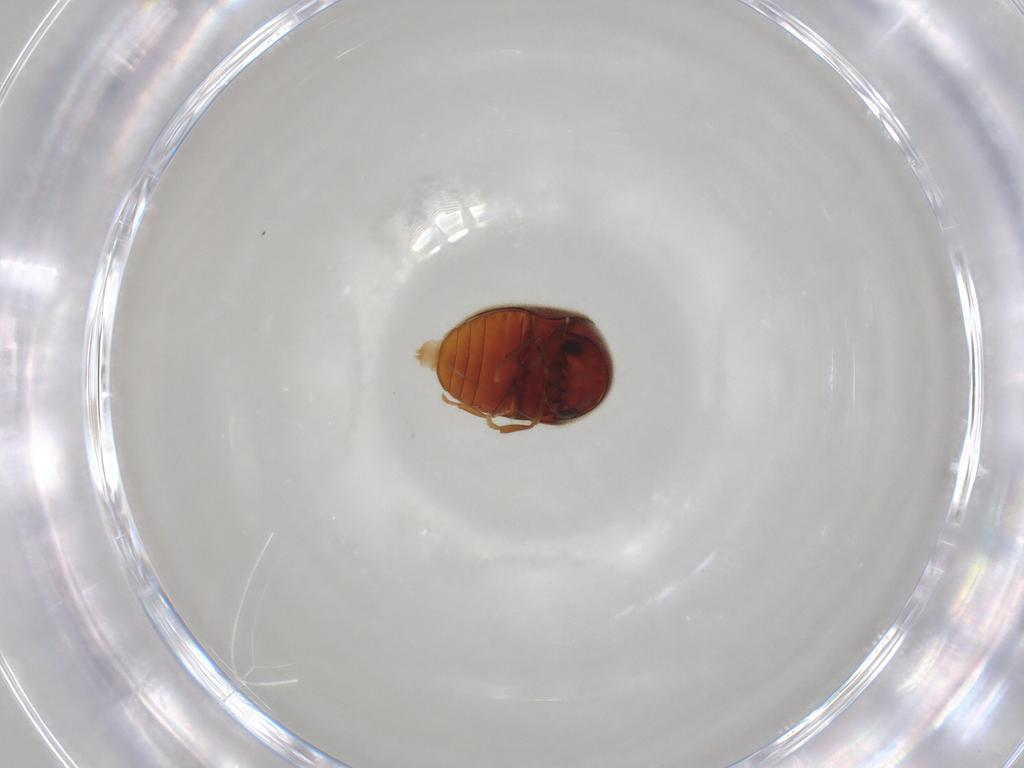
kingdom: Animalia
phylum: Arthropoda
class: Insecta
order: Coleoptera
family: Ptinidae
